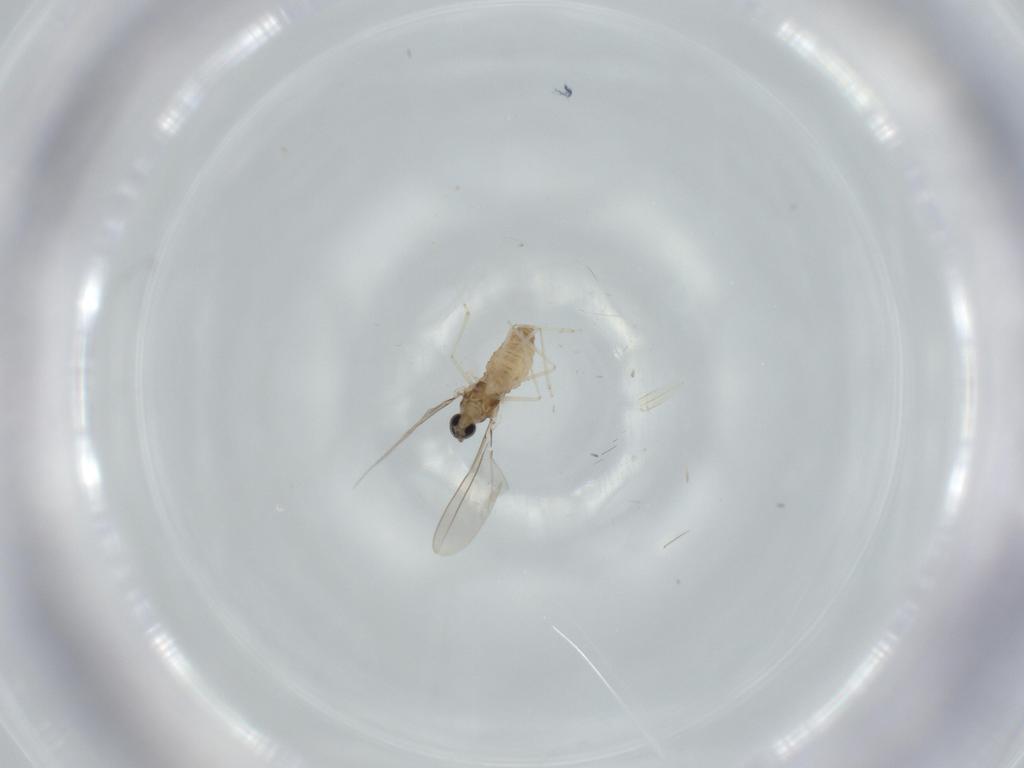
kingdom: Animalia
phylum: Arthropoda
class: Insecta
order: Diptera
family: Cecidomyiidae
